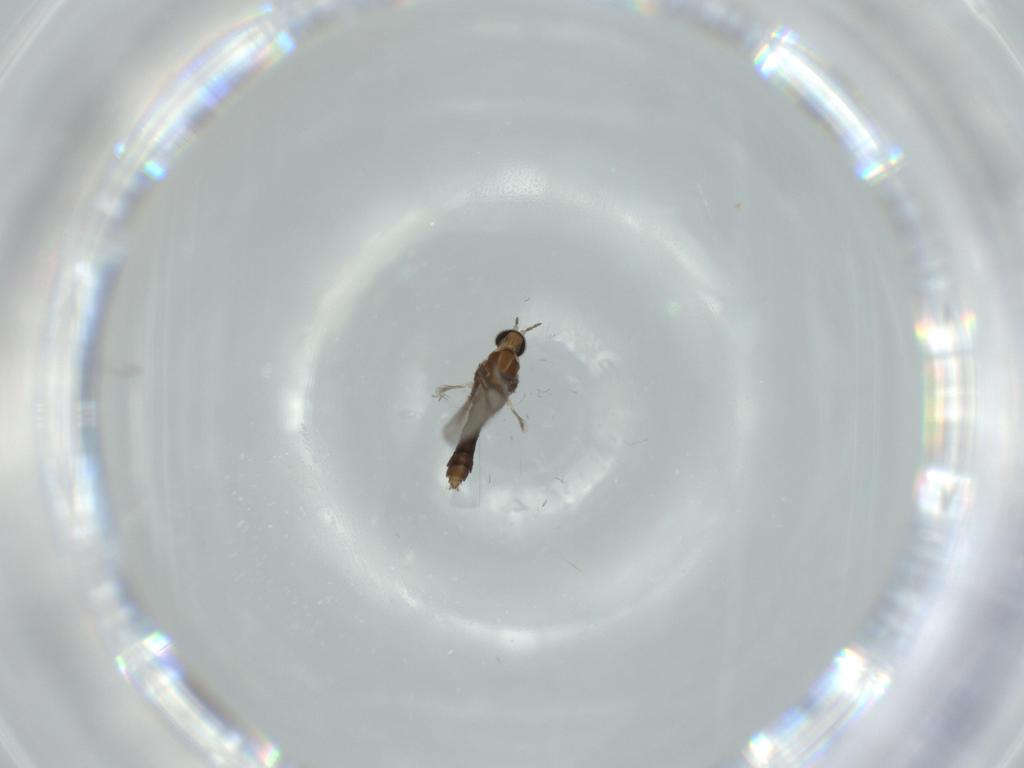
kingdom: Animalia
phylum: Arthropoda
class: Insecta
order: Diptera
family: Cecidomyiidae
